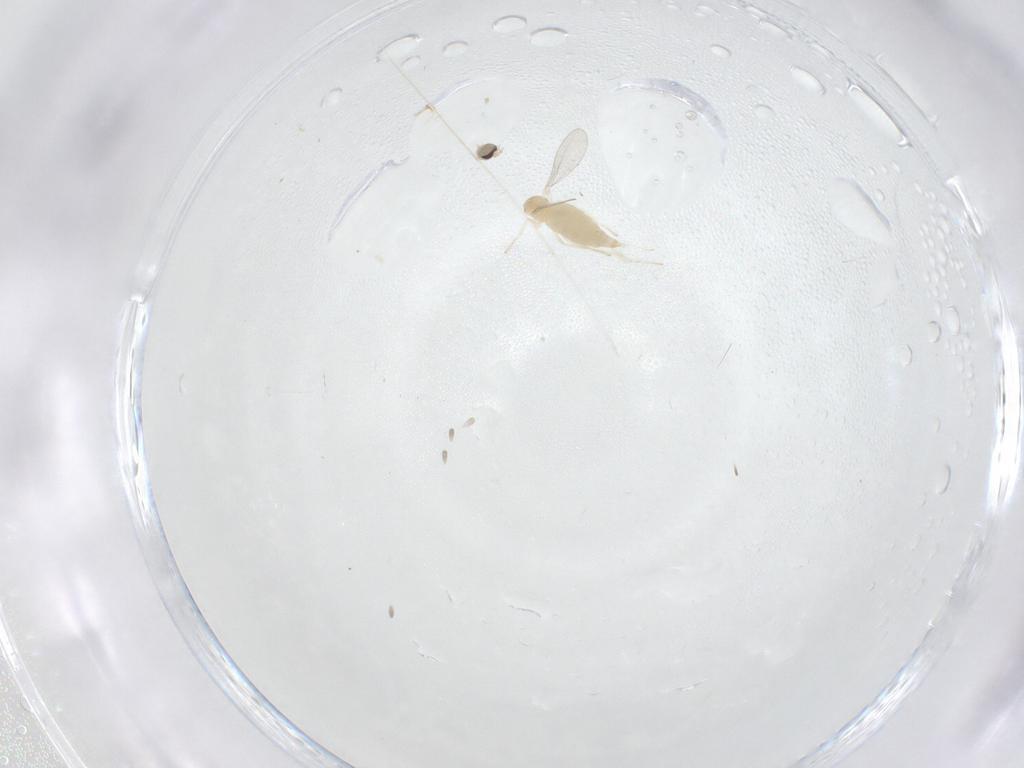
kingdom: Animalia
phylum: Arthropoda
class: Insecta
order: Diptera
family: Cecidomyiidae
